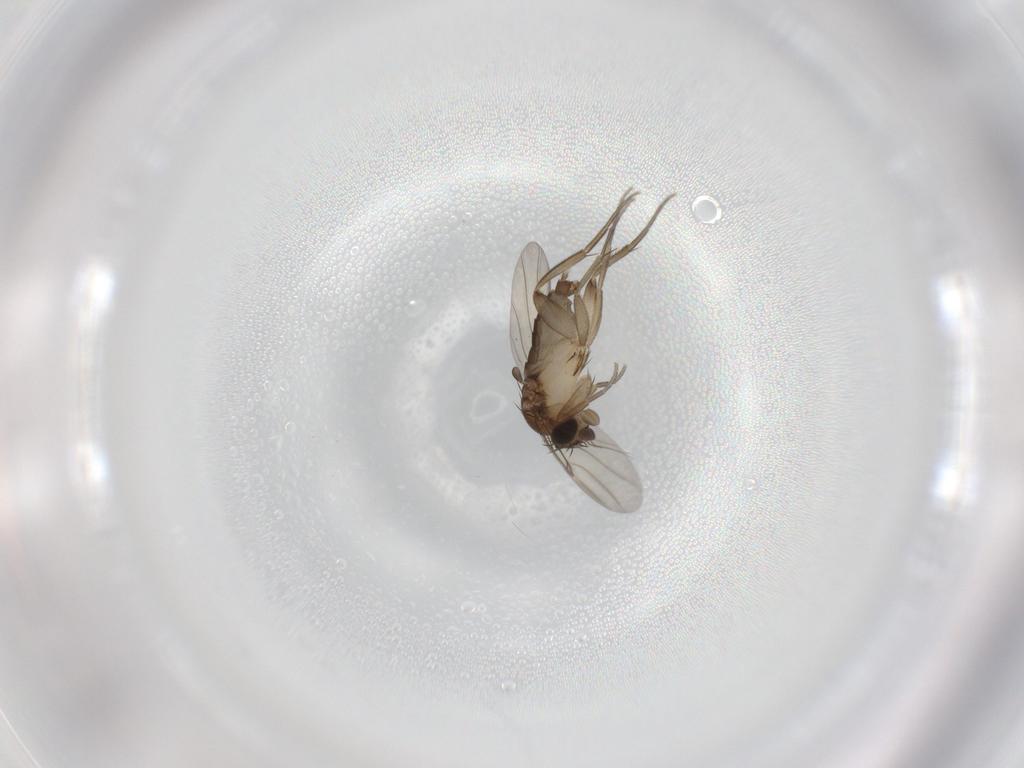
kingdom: Animalia
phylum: Arthropoda
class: Insecta
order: Diptera
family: Phoridae
